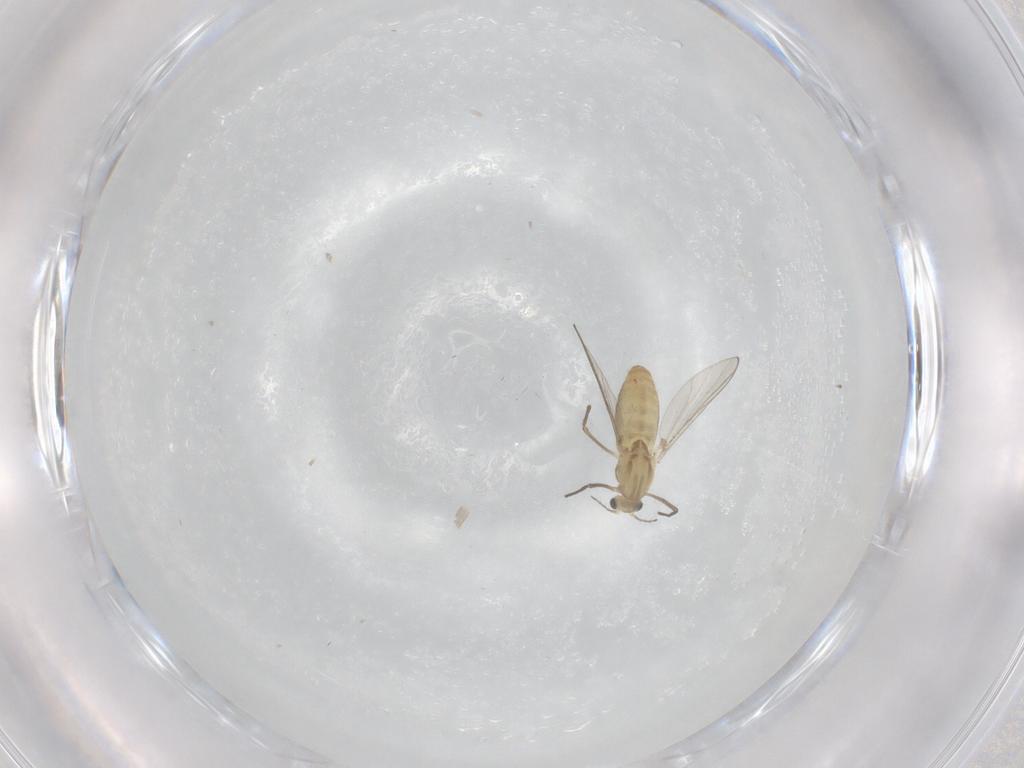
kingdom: Animalia
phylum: Arthropoda
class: Insecta
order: Diptera
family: Chironomidae
